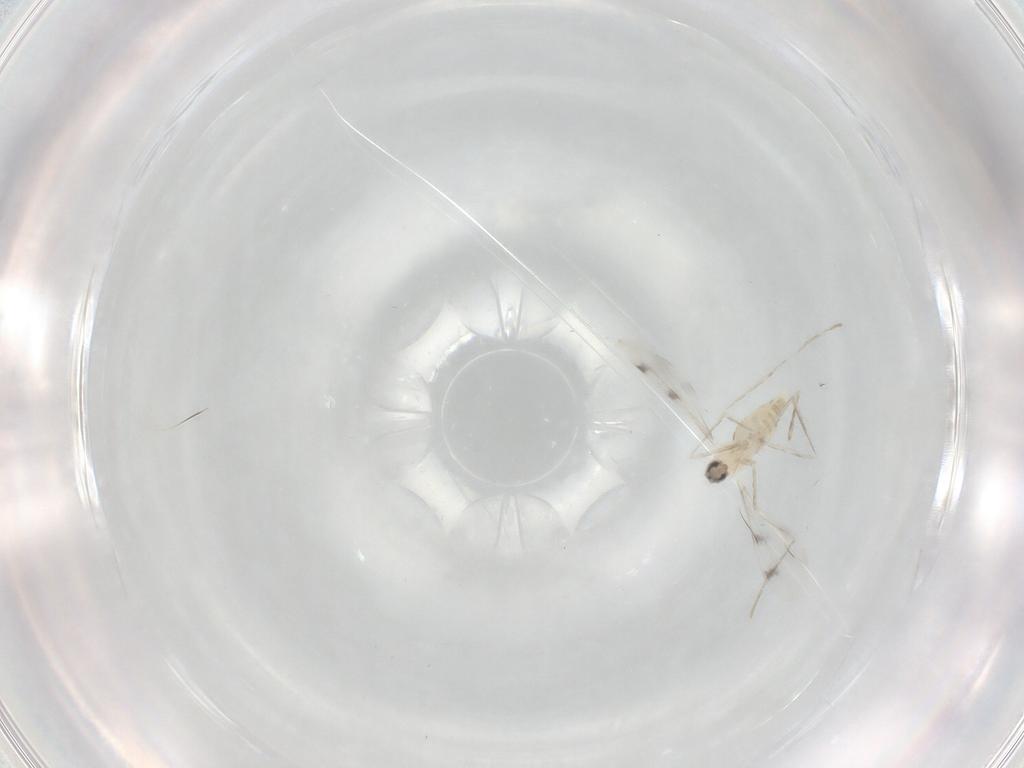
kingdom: Animalia
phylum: Arthropoda
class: Insecta
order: Diptera
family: Cecidomyiidae
